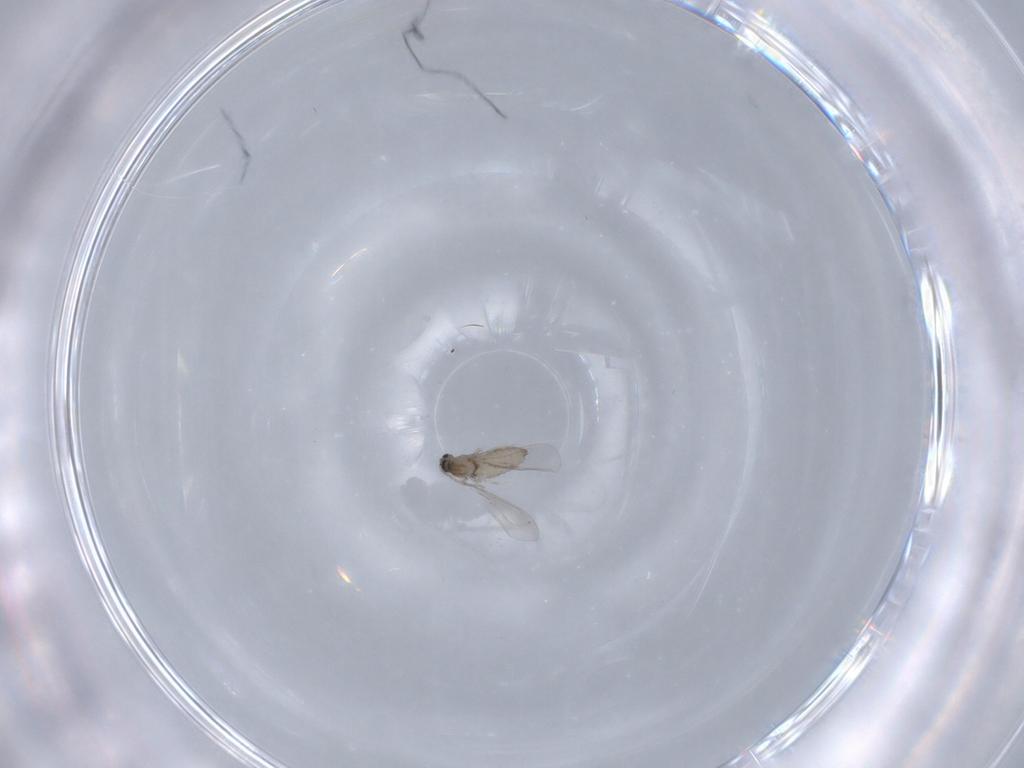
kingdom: Animalia
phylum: Arthropoda
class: Insecta
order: Diptera
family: Cecidomyiidae
